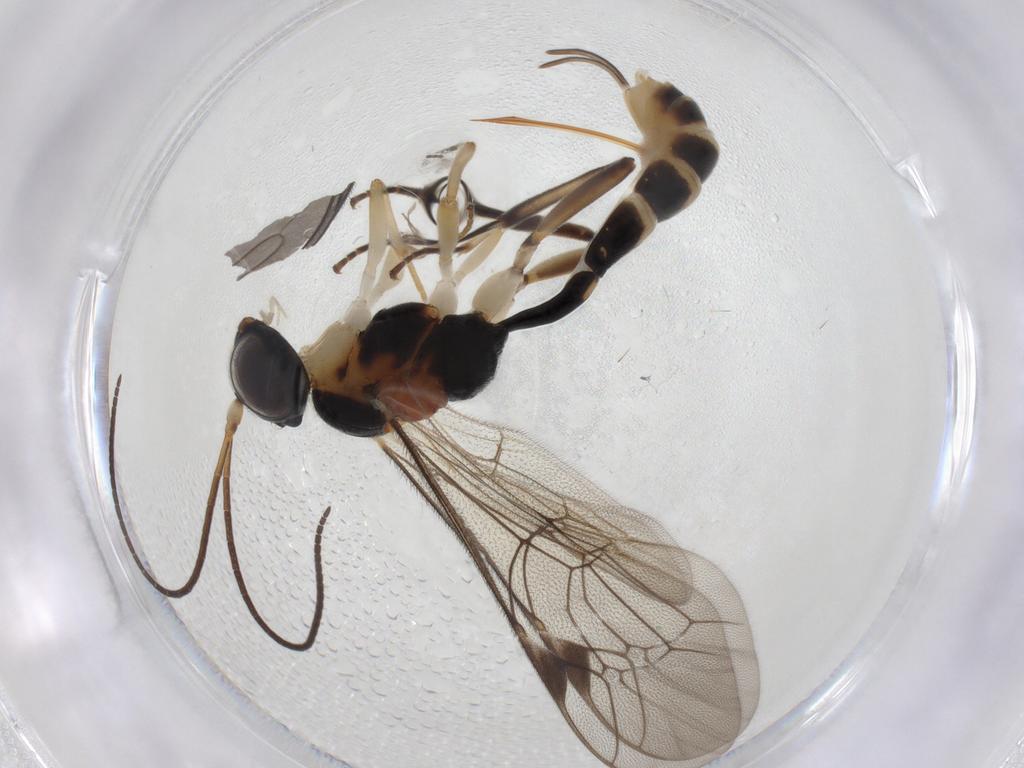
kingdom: Animalia
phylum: Arthropoda
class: Insecta
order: Hymenoptera
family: Ichneumonidae
